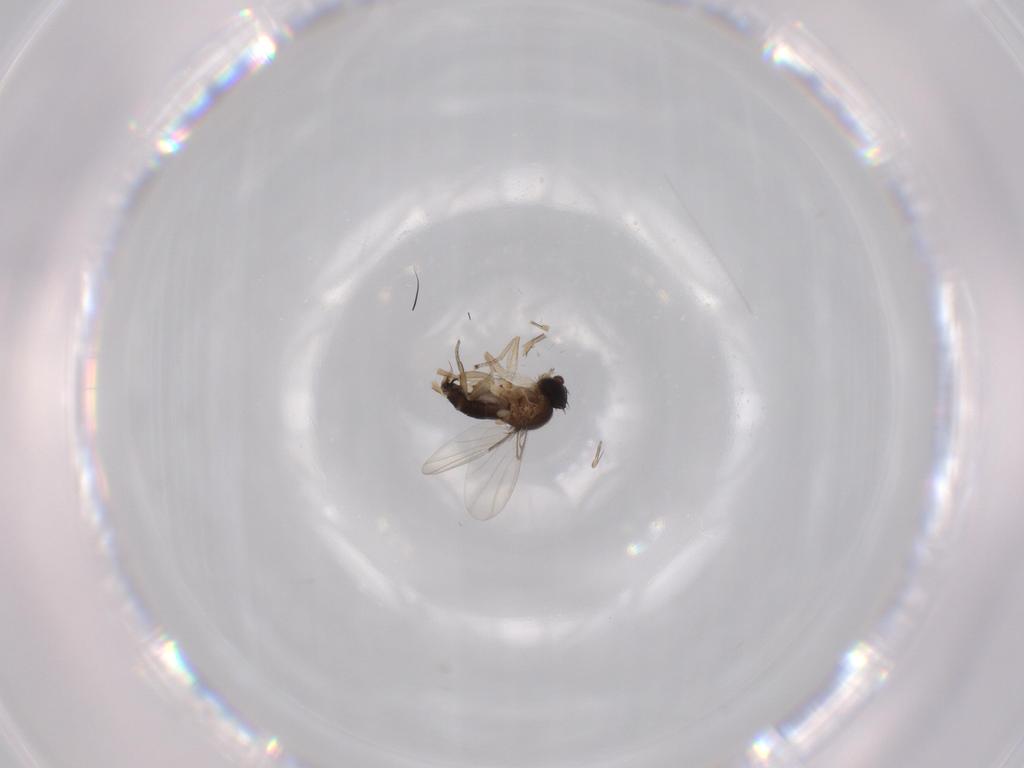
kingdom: Animalia
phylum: Arthropoda
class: Insecta
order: Diptera
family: Phoridae
